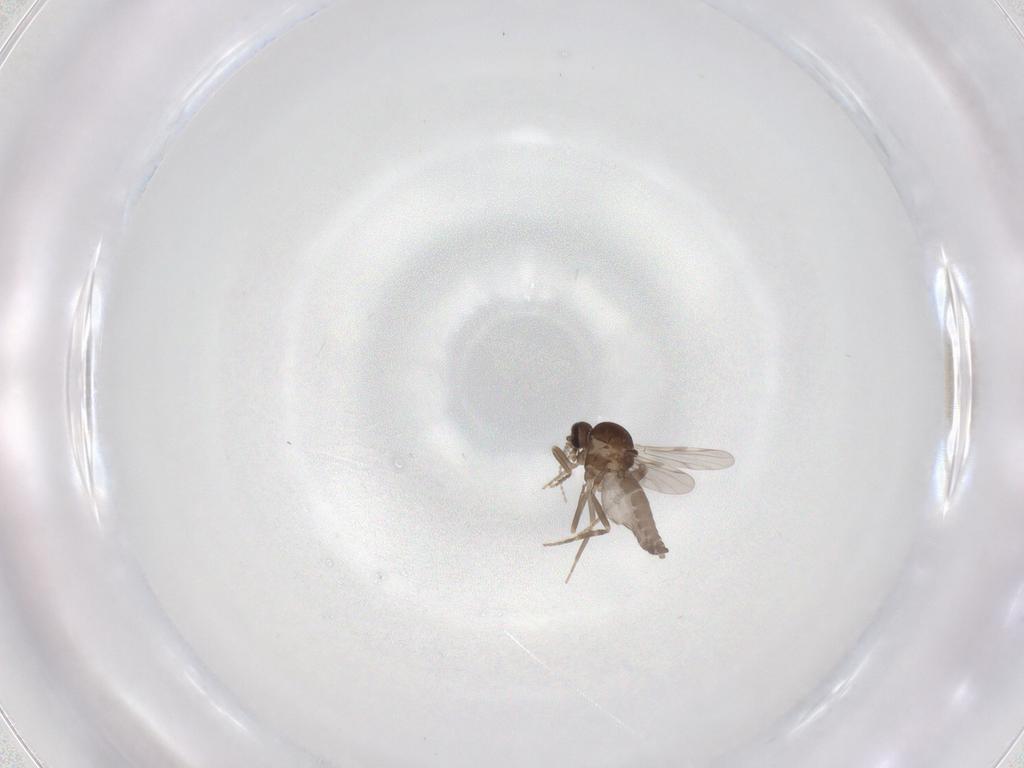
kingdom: Animalia
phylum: Arthropoda
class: Insecta
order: Diptera
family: Ceratopogonidae
